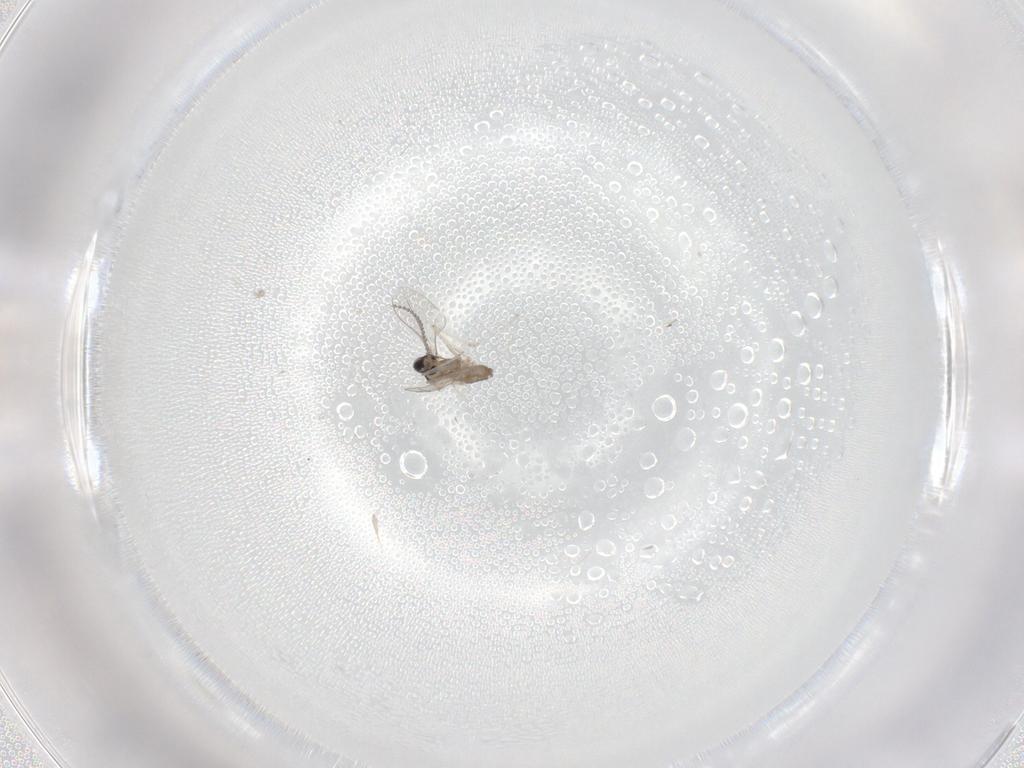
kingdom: Animalia
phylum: Arthropoda
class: Insecta
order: Diptera
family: Cecidomyiidae
